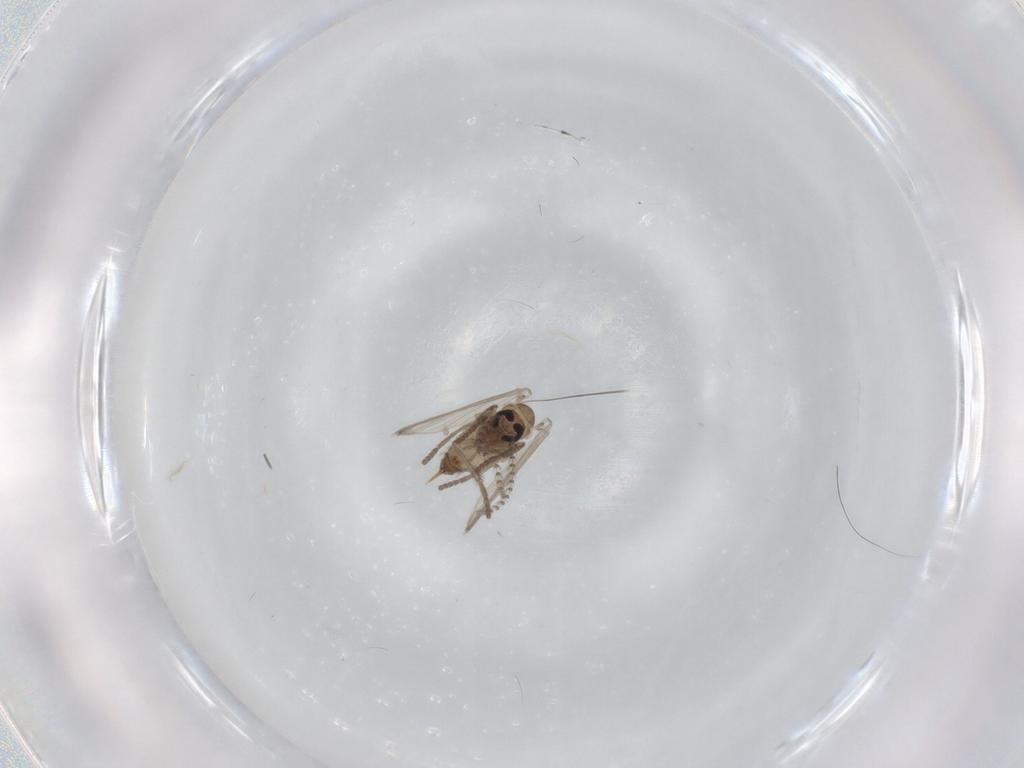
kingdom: Animalia
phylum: Arthropoda
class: Insecta
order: Diptera
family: Psychodidae
